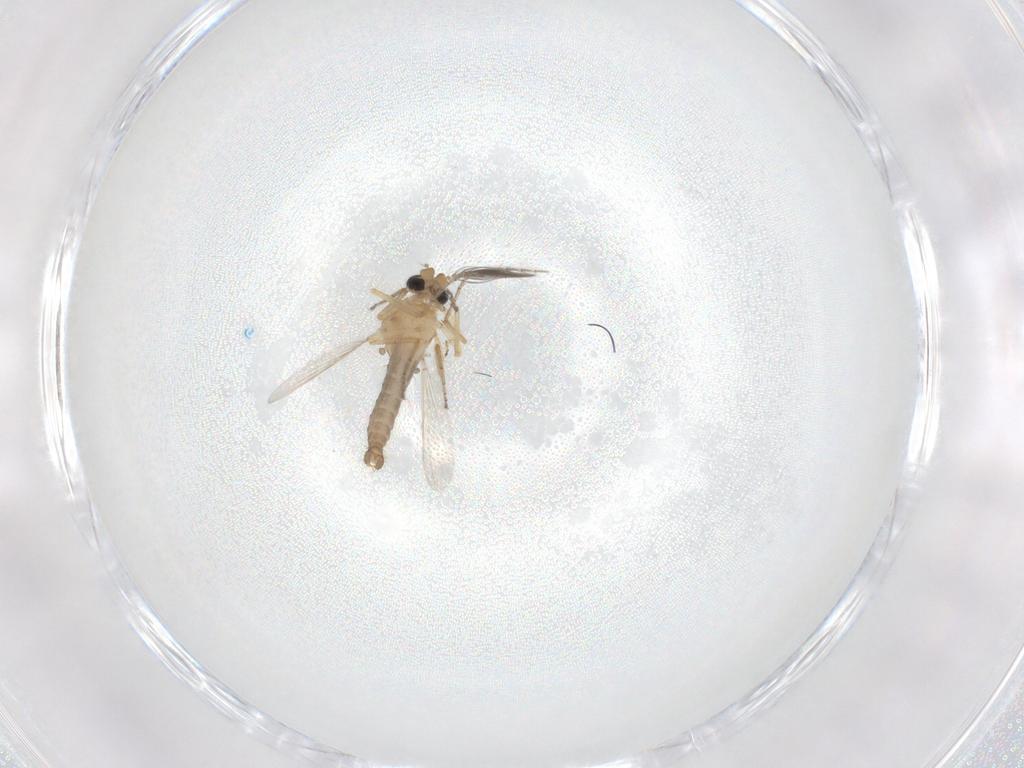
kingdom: Animalia
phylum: Arthropoda
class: Insecta
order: Diptera
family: Ceratopogonidae
